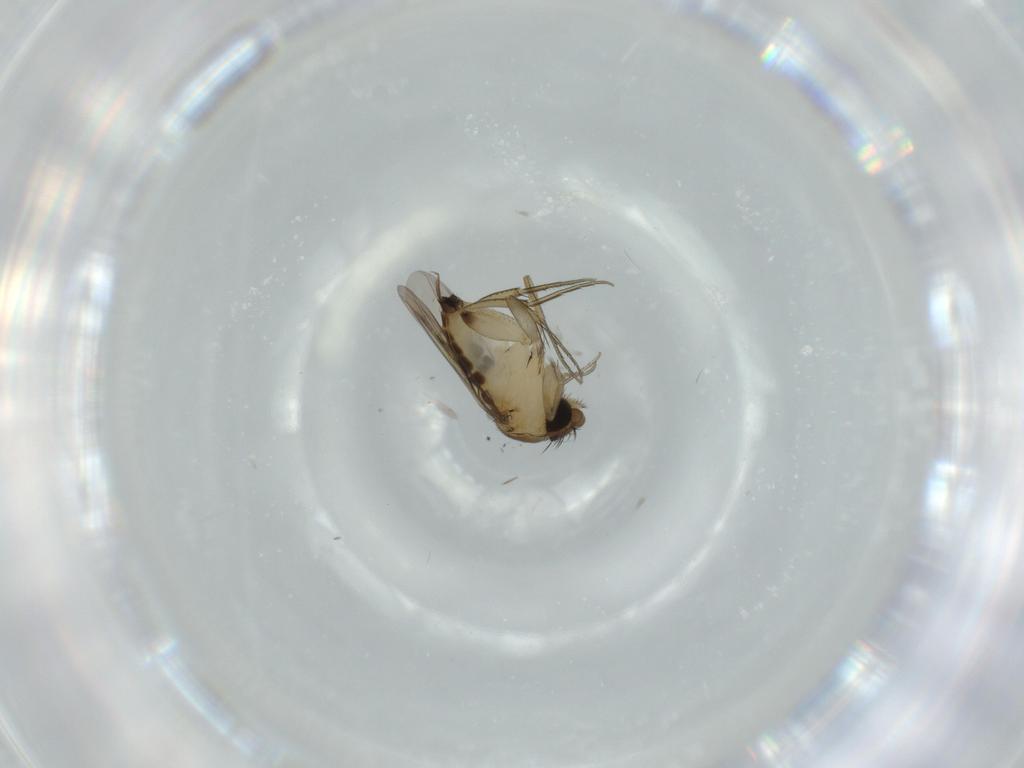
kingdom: Animalia
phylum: Arthropoda
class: Insecta
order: Diptera
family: Phoridae
